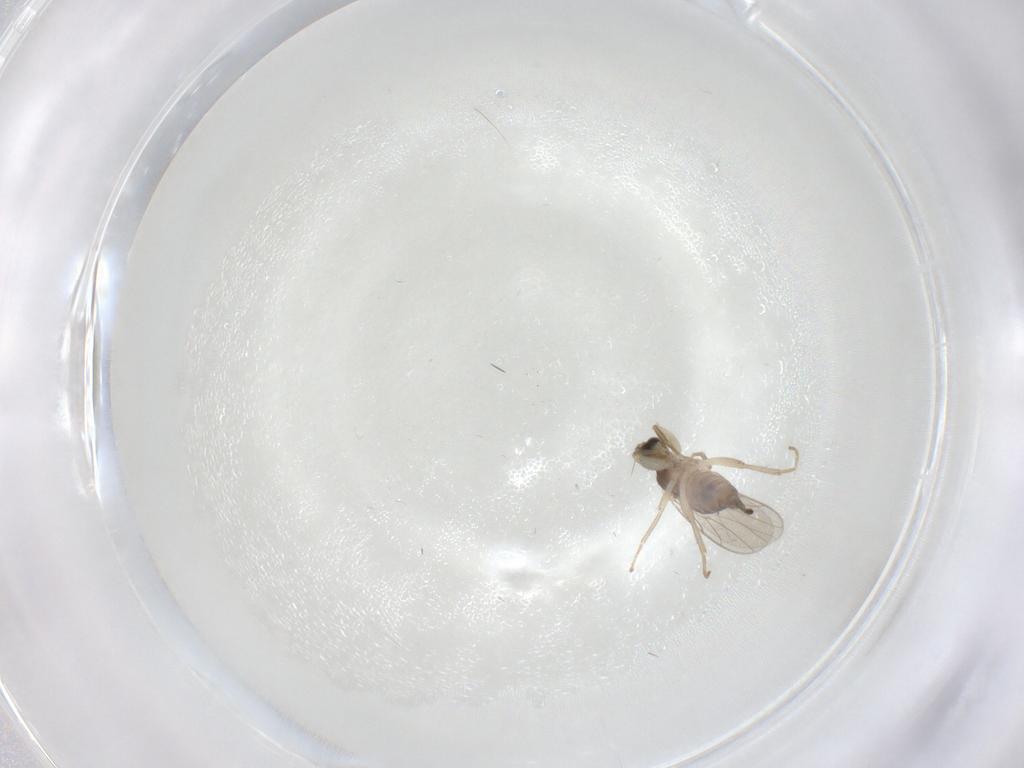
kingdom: Animalia
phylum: Arthropoda
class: Insecta
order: Diptera
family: Hybotidae
